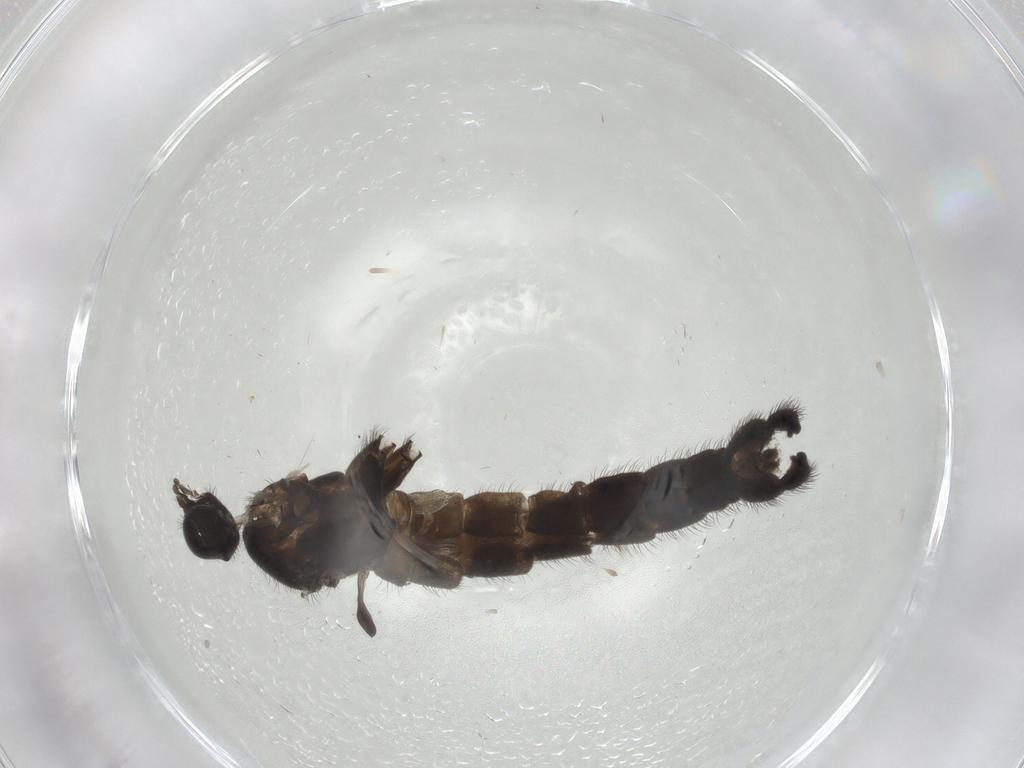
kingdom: Animalia
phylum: Arthropoda
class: Insecta
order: Diptera
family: Phoridae
